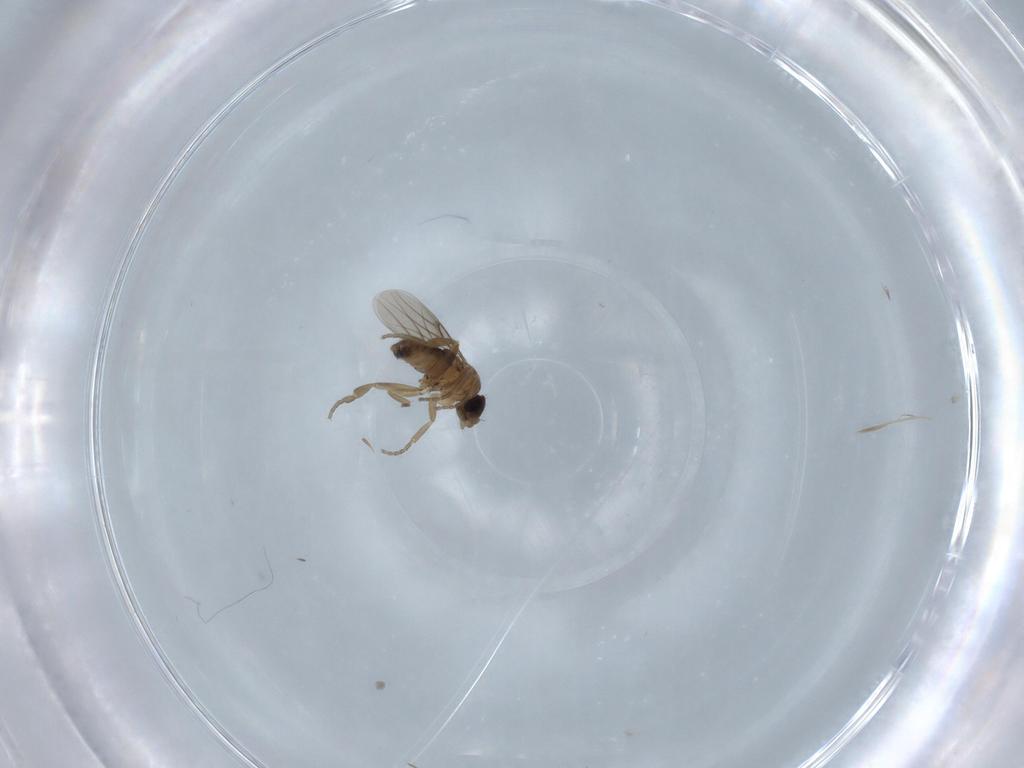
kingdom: Animalia
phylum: Arthropoda
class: Insecta
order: Diptera
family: Phoridae
